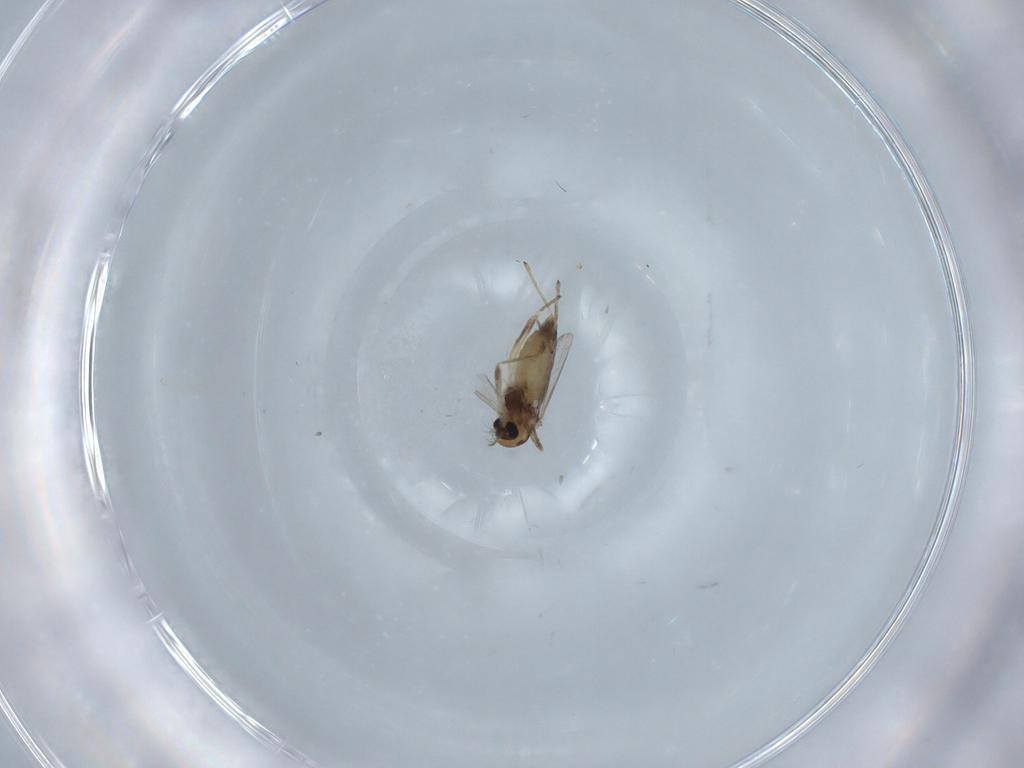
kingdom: Animalia
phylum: Arthropoda
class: Insecta
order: Diptera
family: Chironomidae
